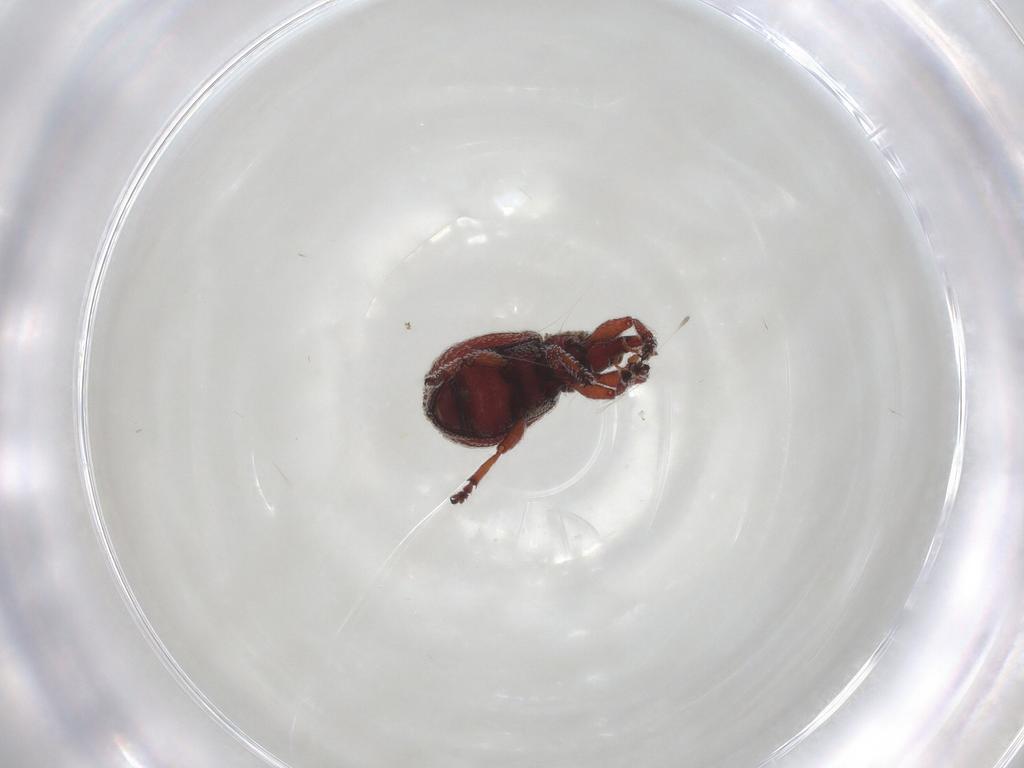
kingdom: Animalia
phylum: Arthropoda
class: Insecta
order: Coleoptera
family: Brentidae
